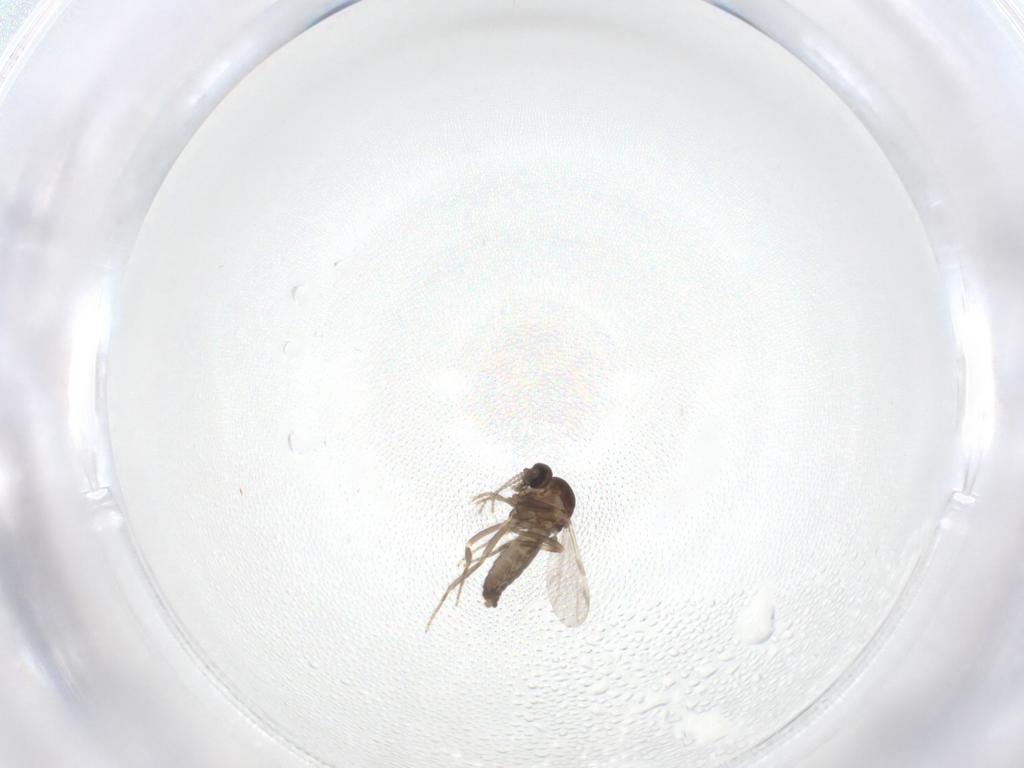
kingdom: Animalia
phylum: Arthropoda
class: Insecta
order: Diptera
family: Ceratopogonidae
